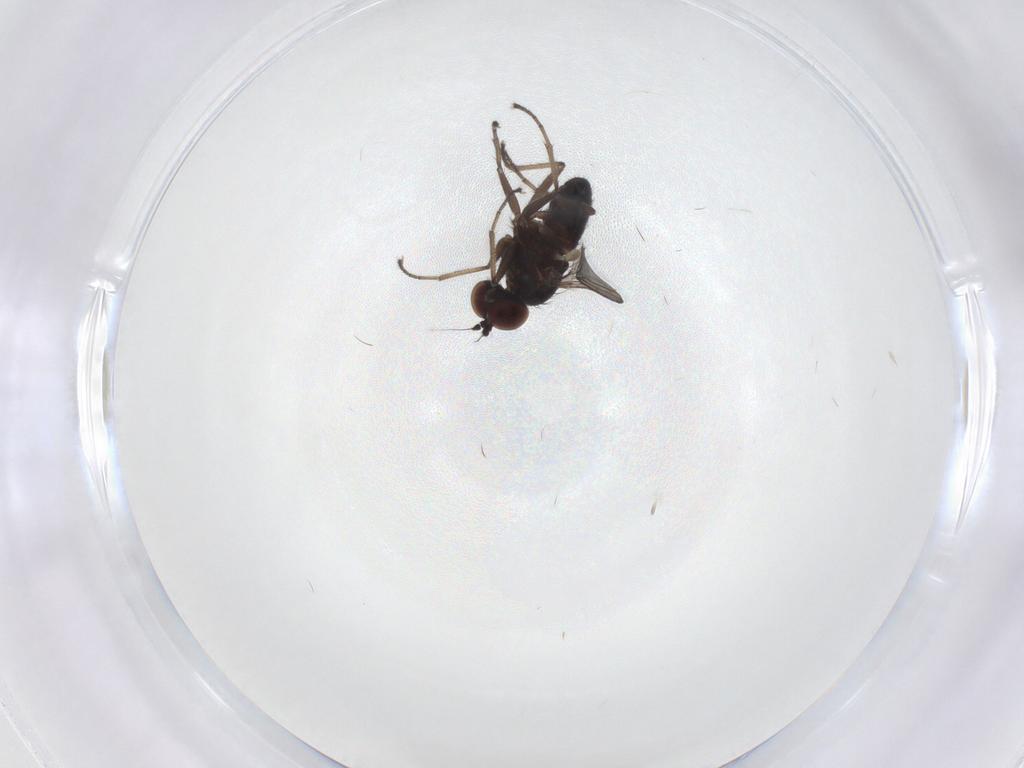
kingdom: Animalia
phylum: Arthropoda
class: Insecta
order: Diptera
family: Dolichopodidae
